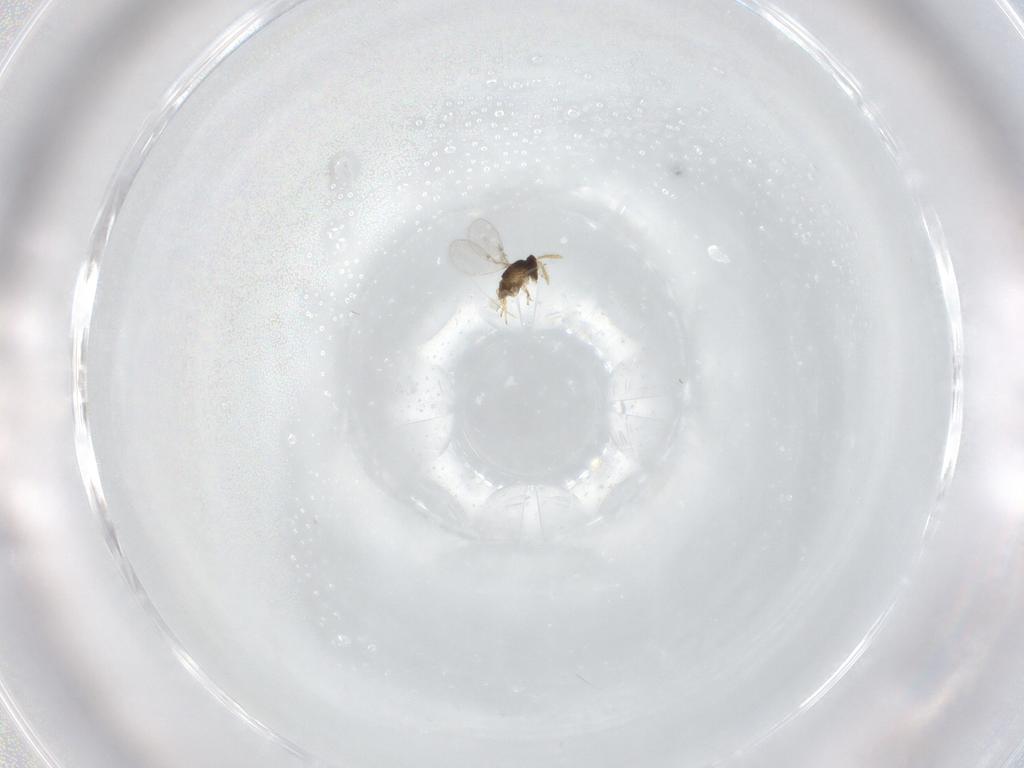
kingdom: Animalia
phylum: Arthropoda
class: Insecta
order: Hymenoptera
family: Encyrtidae
